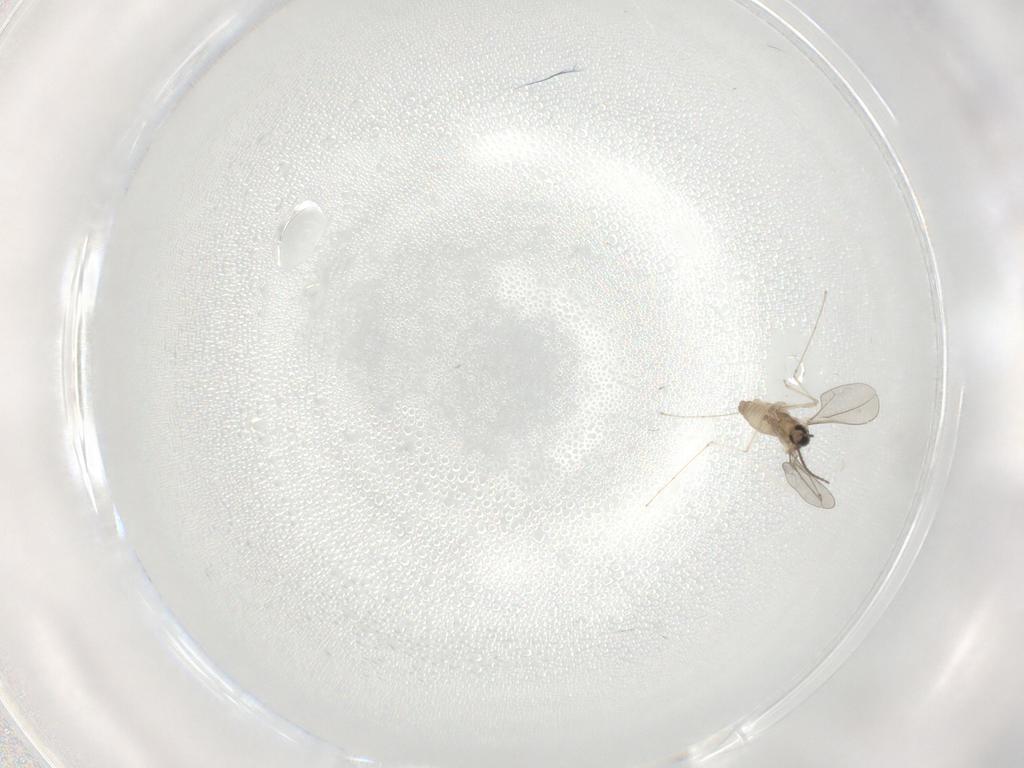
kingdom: Animalia
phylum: Arthropoda
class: Insecta
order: Diptera
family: Cecidomyiidae
